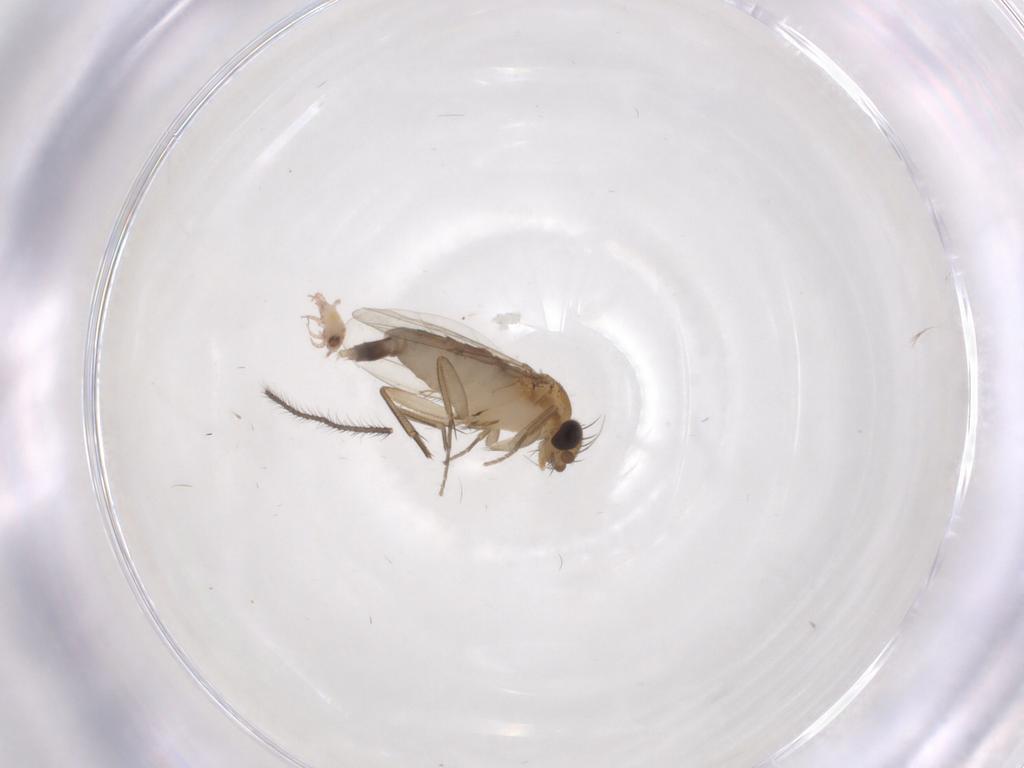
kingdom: Animalia
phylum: Arthropoda
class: Insecta
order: Diptera
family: Phoridae
